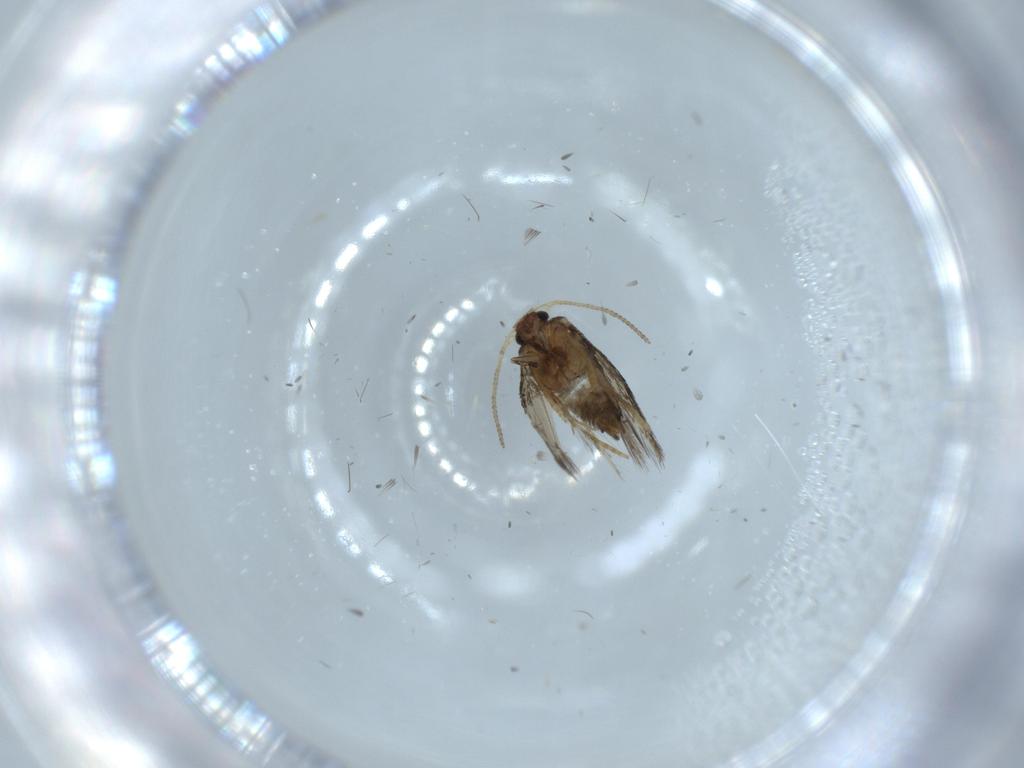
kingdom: Animalia
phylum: Arthropoda
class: Insecta
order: Lepidoptera
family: Nepticulidae
